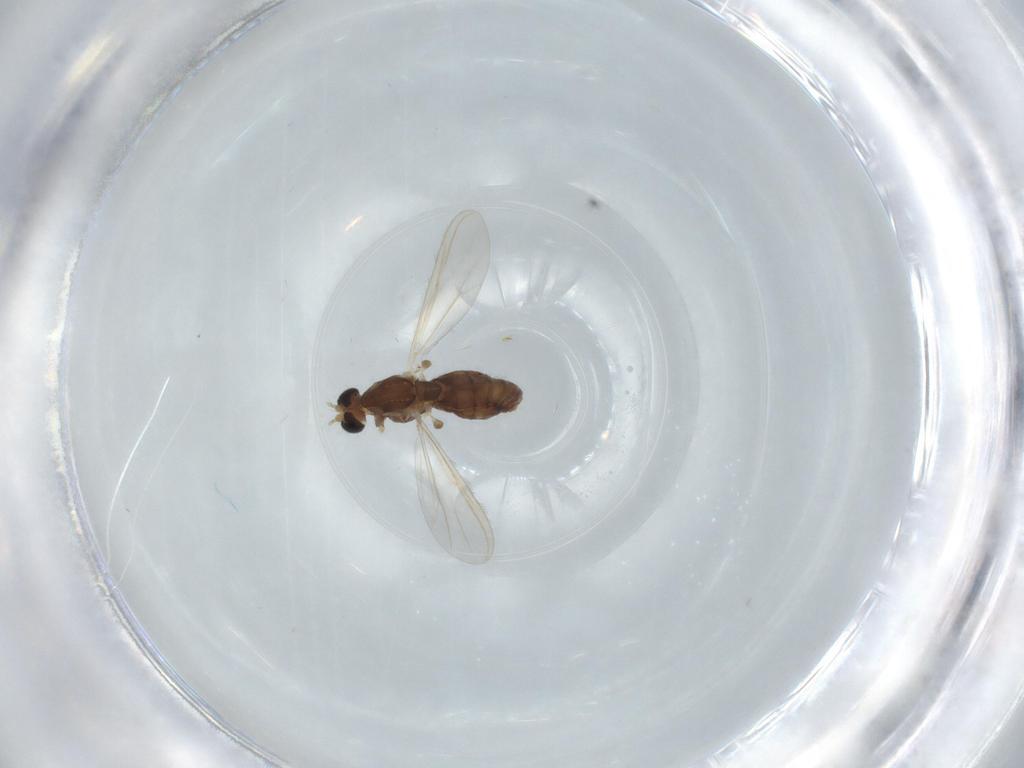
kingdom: Animalia
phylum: Arthropoda
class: Insecta
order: Diptera
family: Chironomidae
